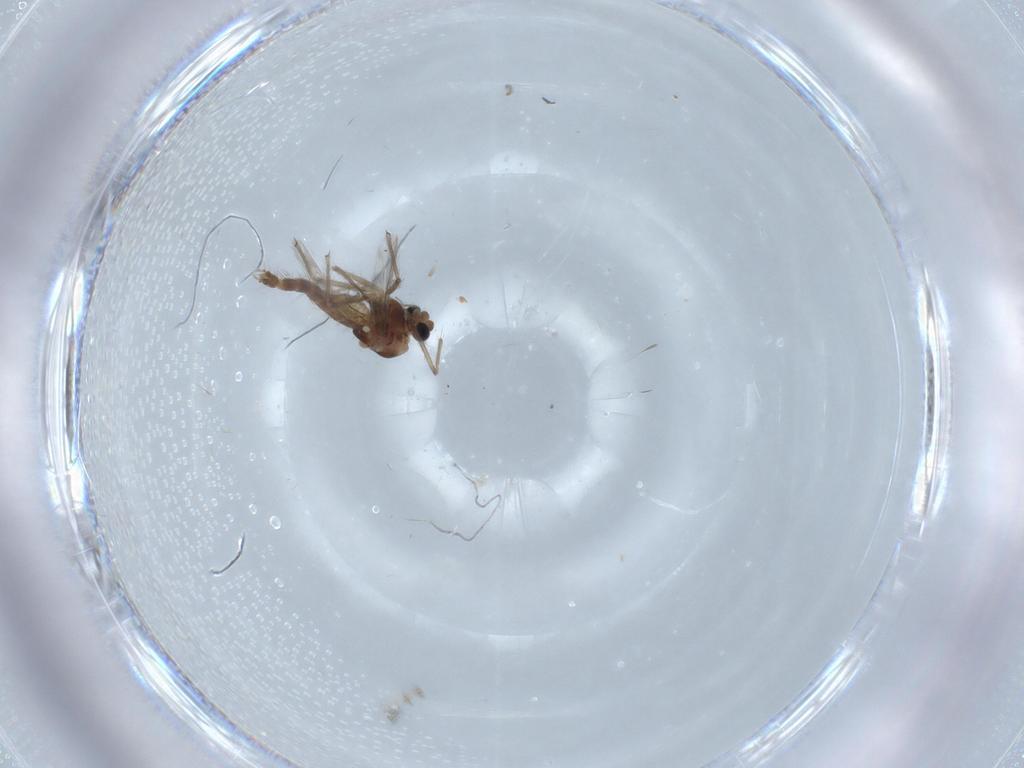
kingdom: Animalia
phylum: Arthropoda
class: Insecta
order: Diptera
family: Chironomidae
